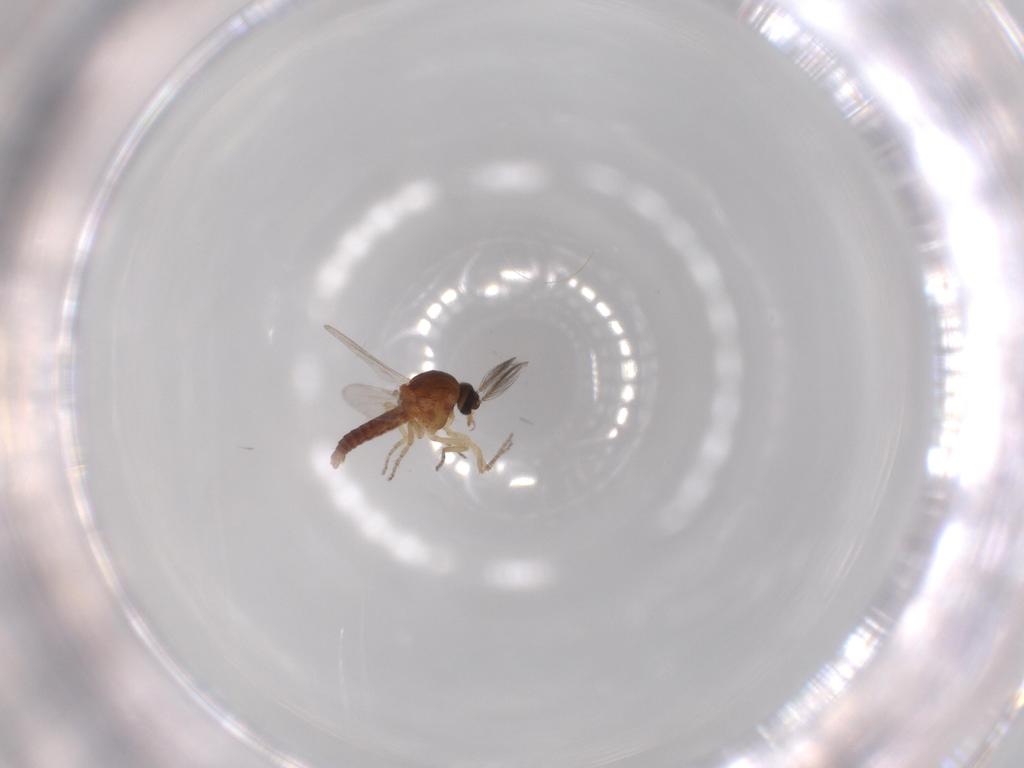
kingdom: Animalia
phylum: Arthropoda
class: Insecta
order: Diptera
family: Ceratopogonidae
